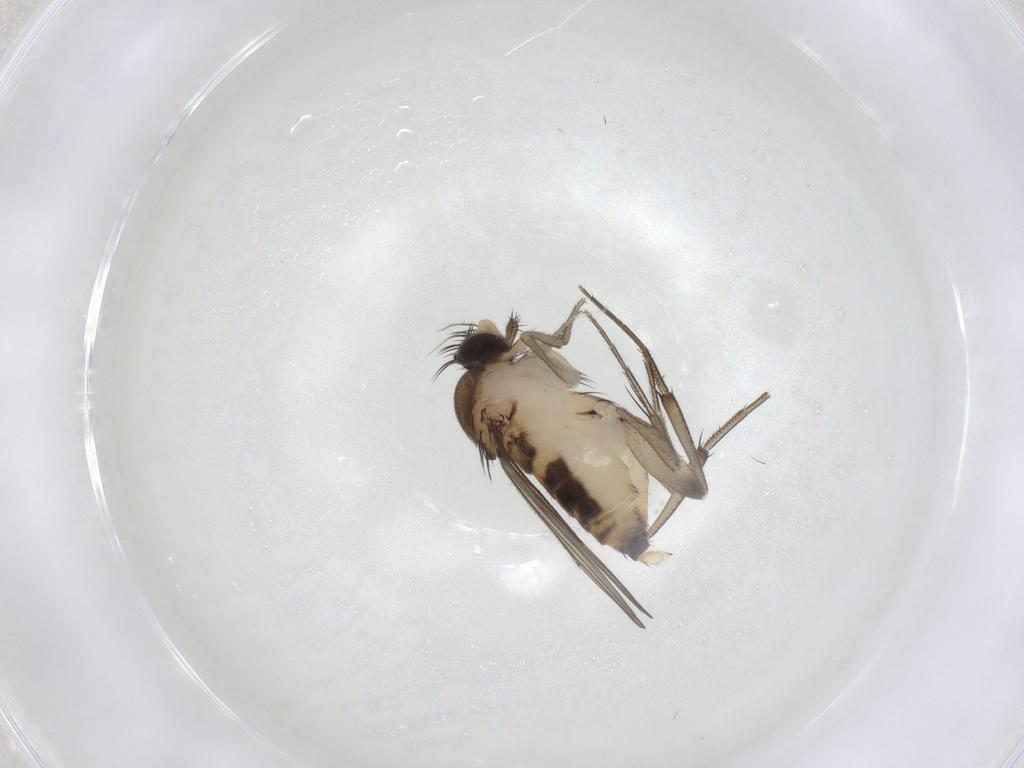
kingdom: Animalia
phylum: Arthropoda
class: Insecta
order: Diptera
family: Phoridae
